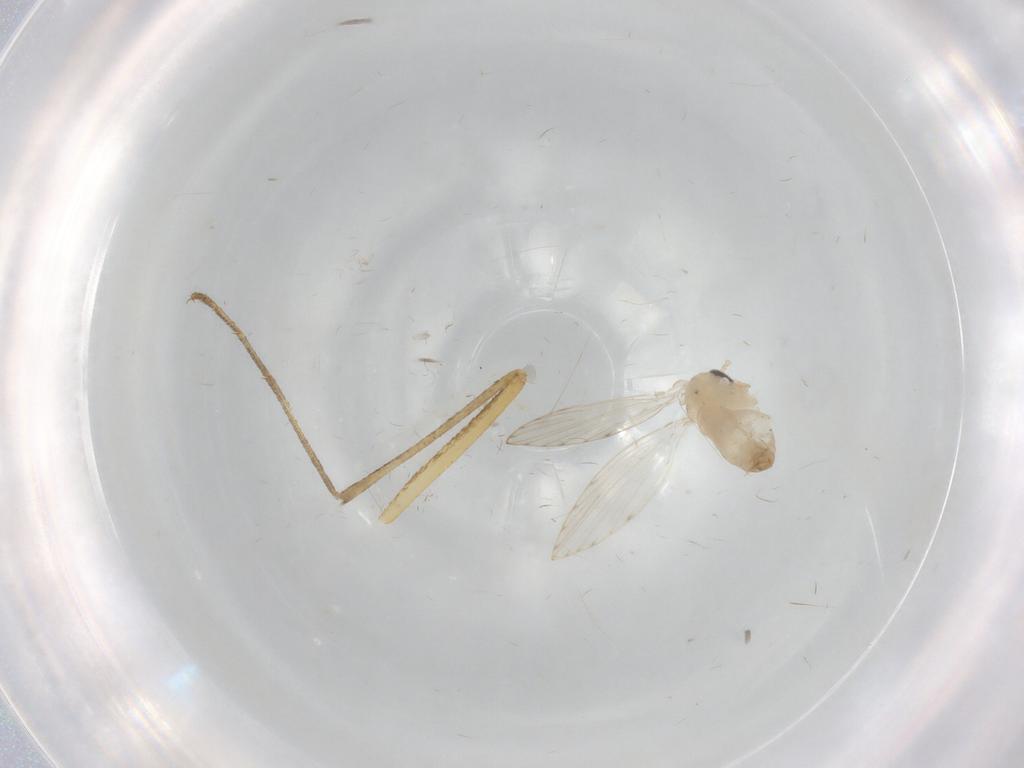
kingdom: Animalia
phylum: Arthropoda
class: Insecta
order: Diptera
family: Culicidae
